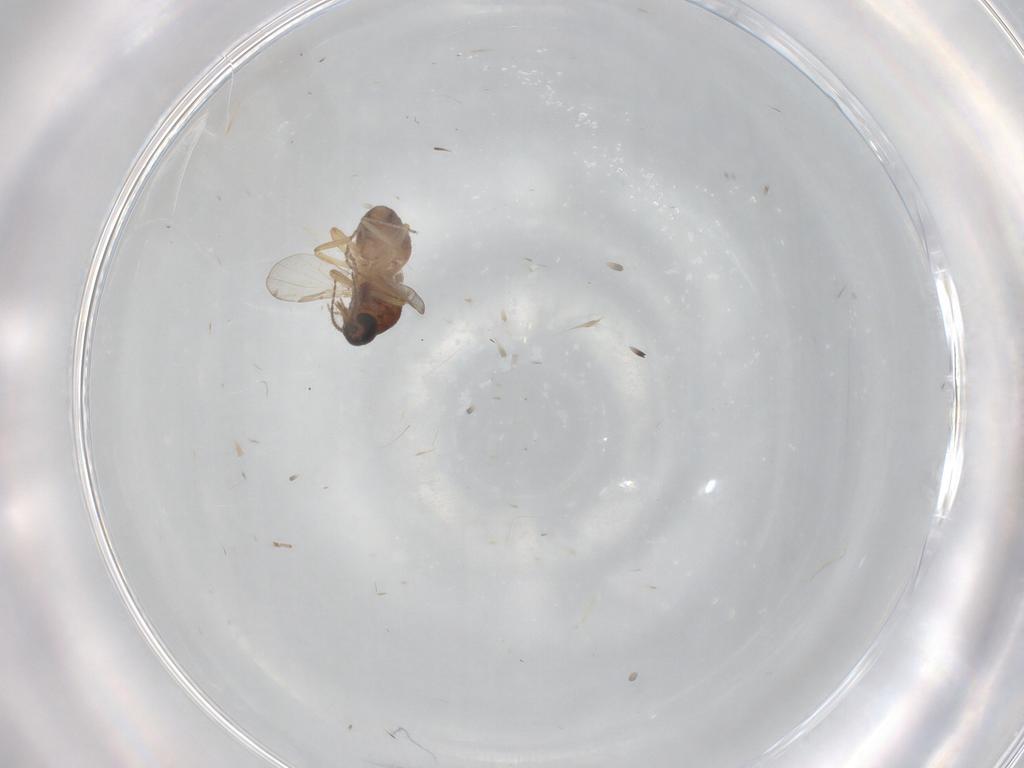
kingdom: Animalia
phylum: Arthropoda
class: Insecta
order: Diptera
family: Ceratopogonidae
